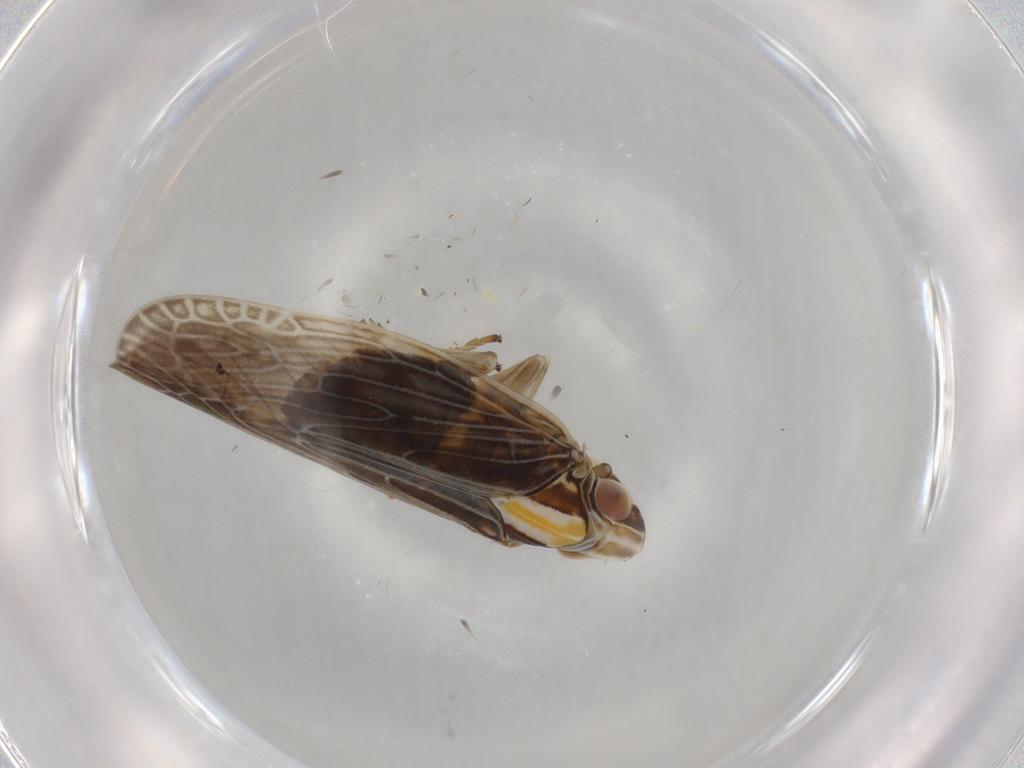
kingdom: Animalia
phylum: Arthropoda
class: Insecta
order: Hemiptera
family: Achilidae
